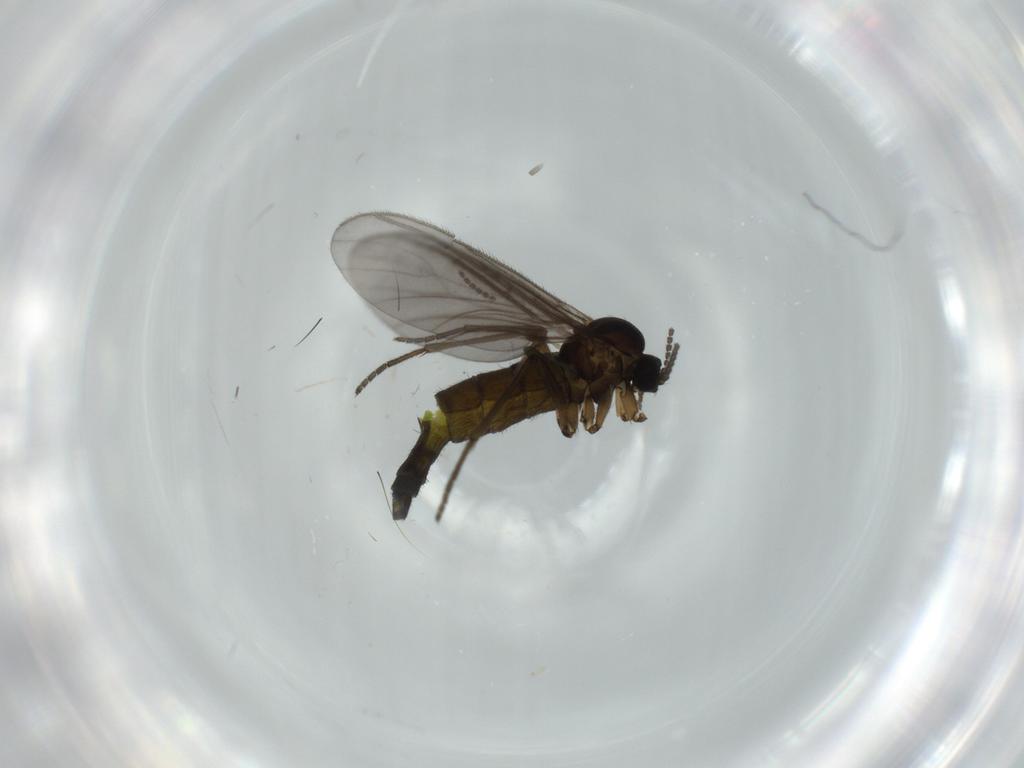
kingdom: Animalia
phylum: Arthropoda
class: Insecta
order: Diptera
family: Sciaridae
